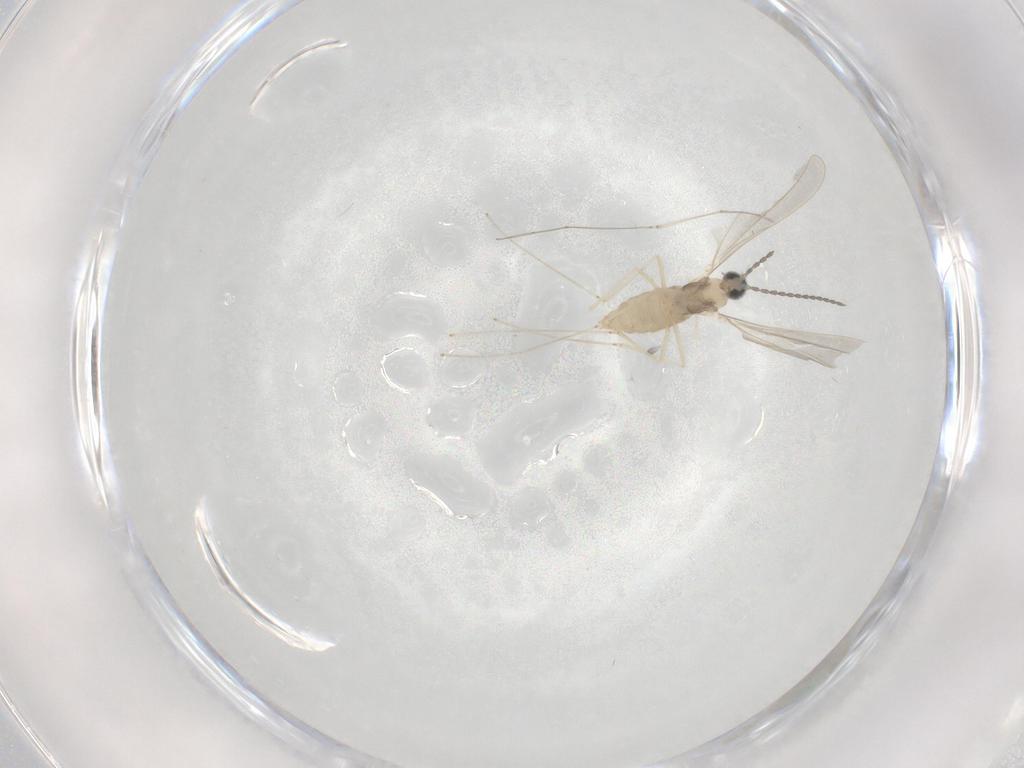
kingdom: Animalia
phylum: Arthropoda
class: Insecta
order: Diptera
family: Cecidomyiidae
